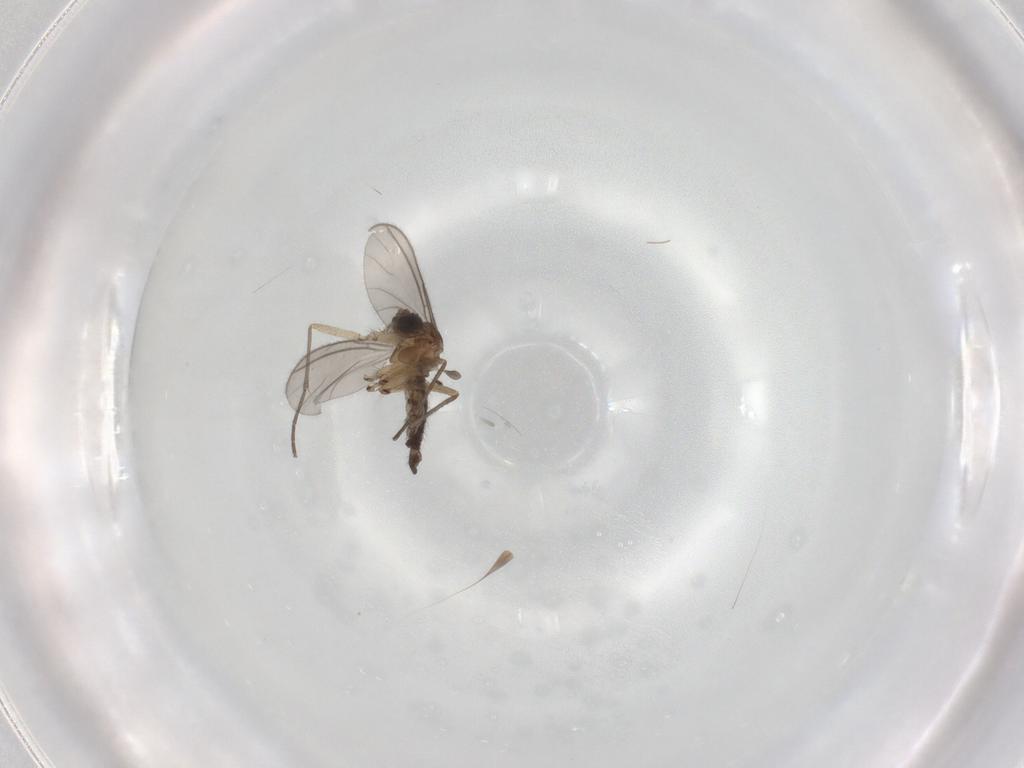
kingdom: Animalia
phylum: Arthropoda
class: Insecta
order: Diptera
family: Sciaridae
